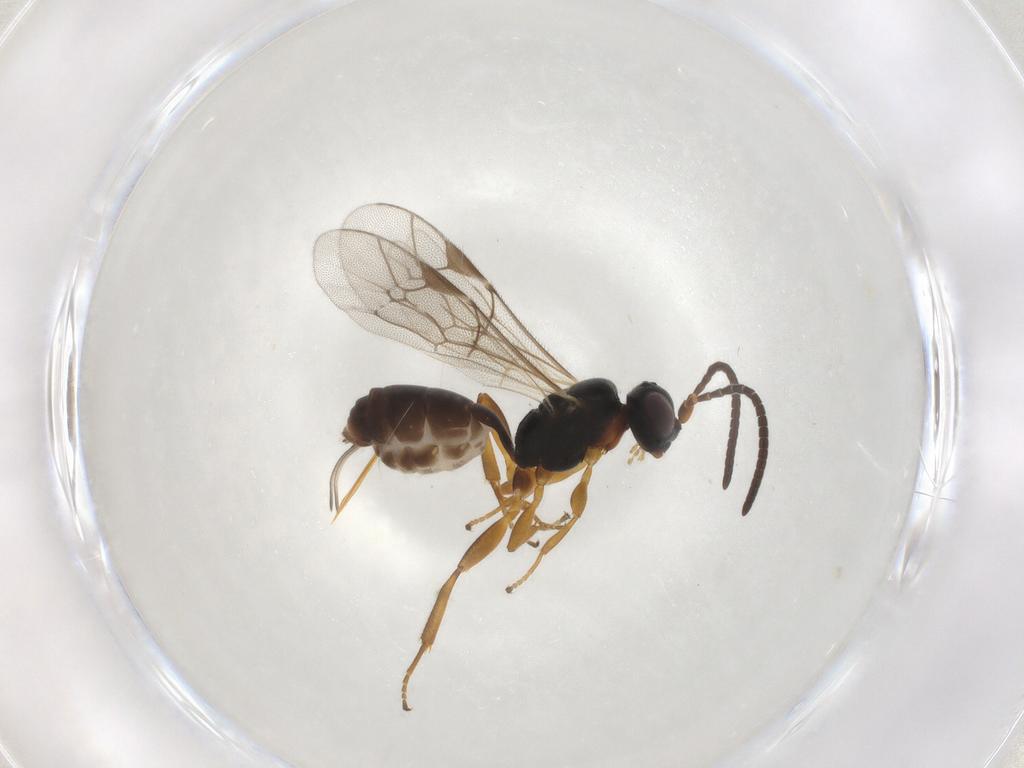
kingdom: Animalia
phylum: Arthropoda
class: Insecta
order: Hymenoptera
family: Ichneumonidae
